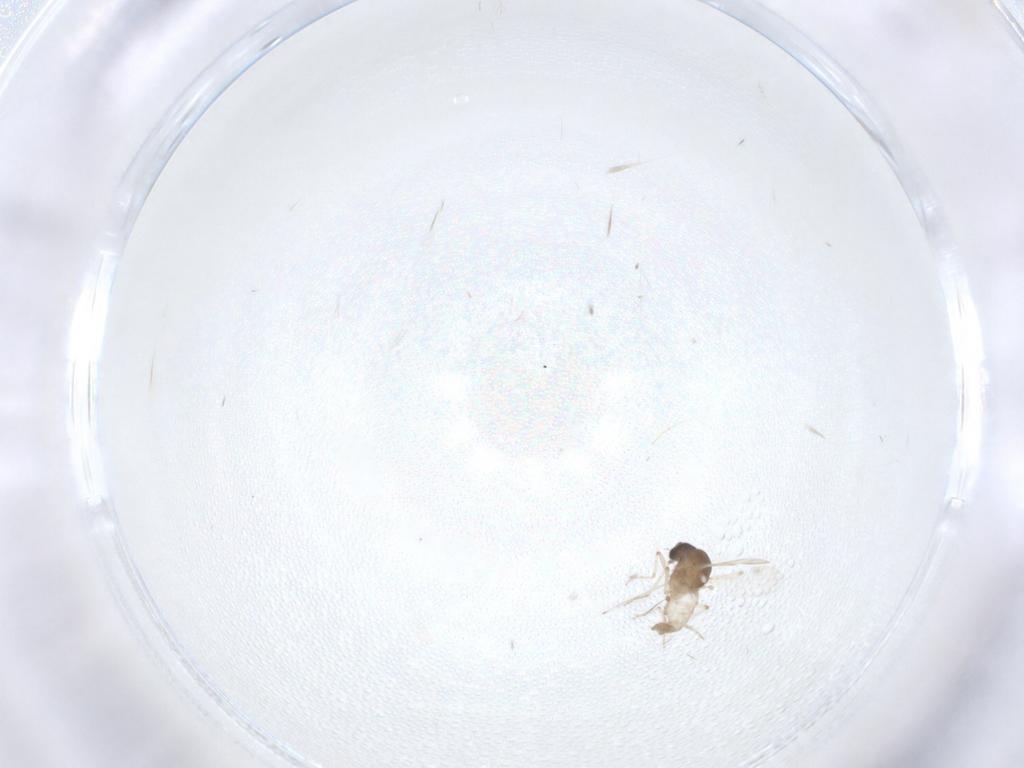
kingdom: Animalia
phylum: Arthropoda
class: Insecta
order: Diptera
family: Ceratopogonidae
